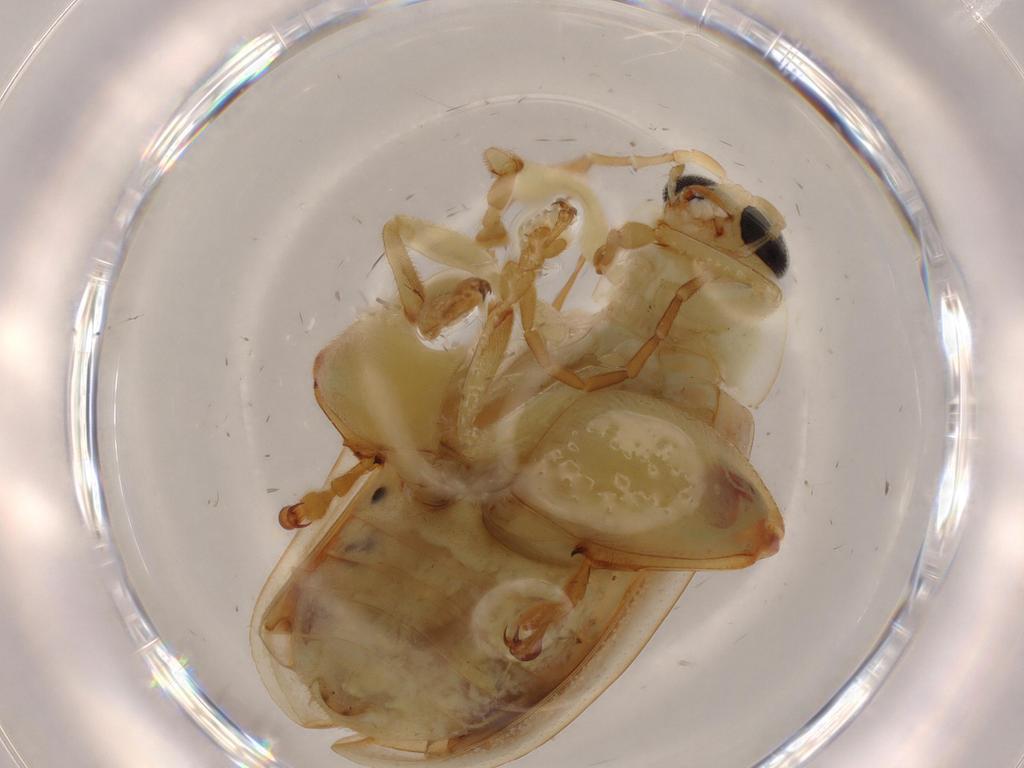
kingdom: Animalia
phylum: Arthropoda
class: Insecta
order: Coleoptera
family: Chrysomelidae
